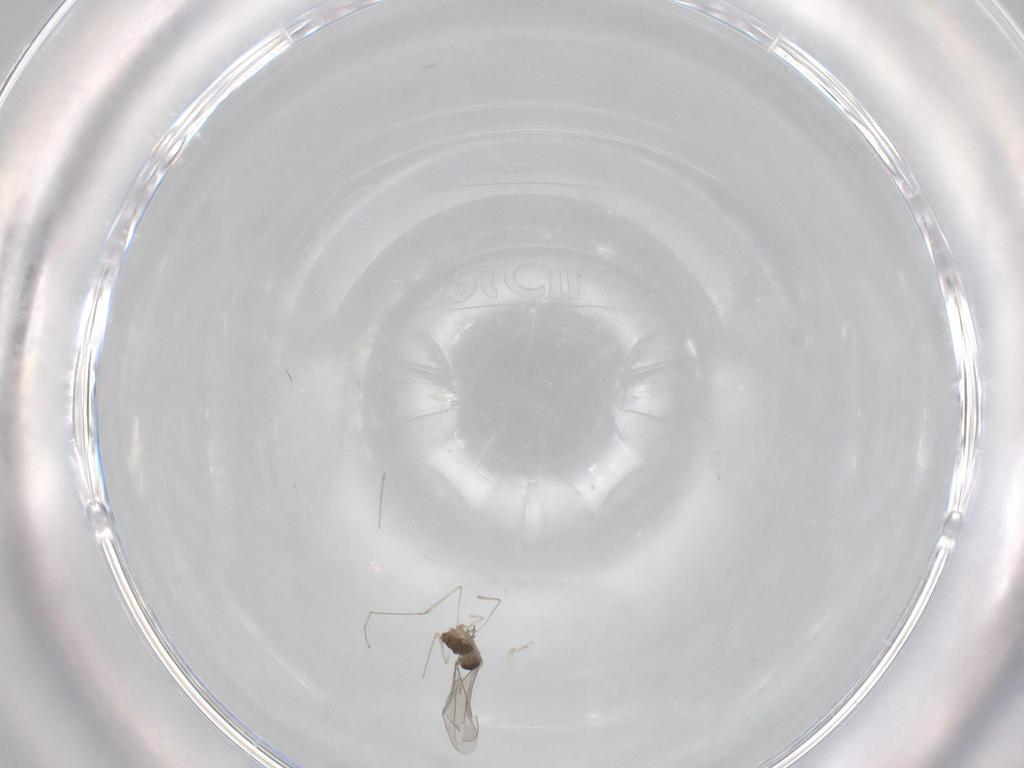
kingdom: Animalia
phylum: Arthropoda
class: Insecta
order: Diptera
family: Cecidomyiidae
